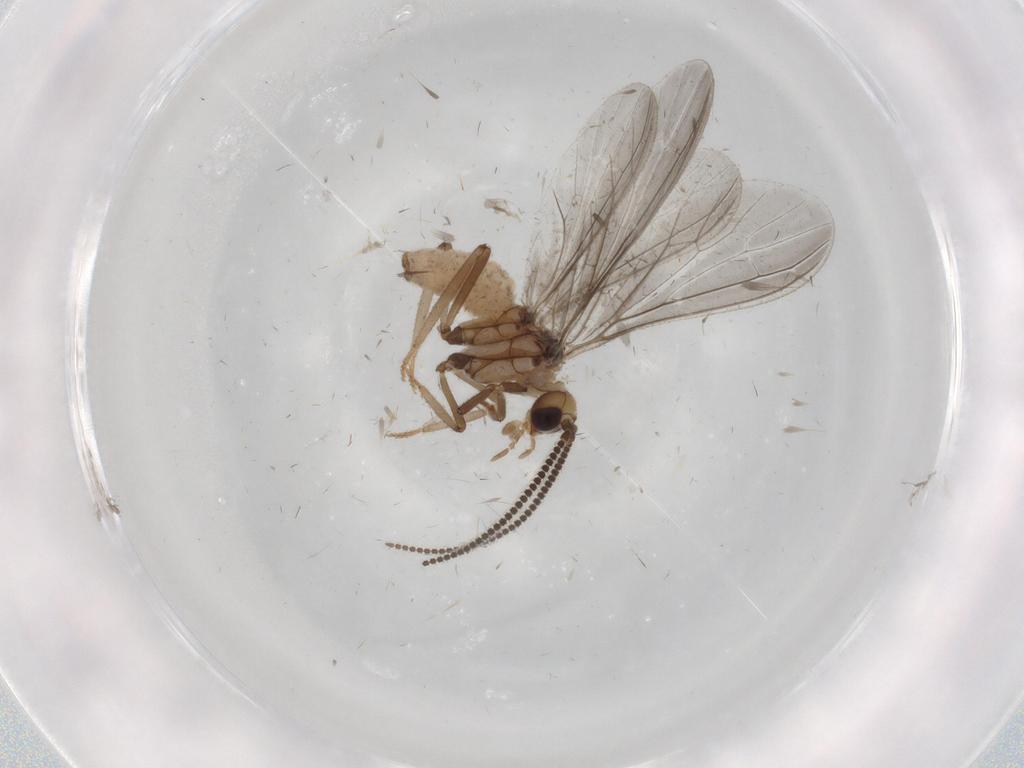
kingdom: Animalia
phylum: Arthropoda
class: Insecta
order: Neuroptera
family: Coniopterygidae
